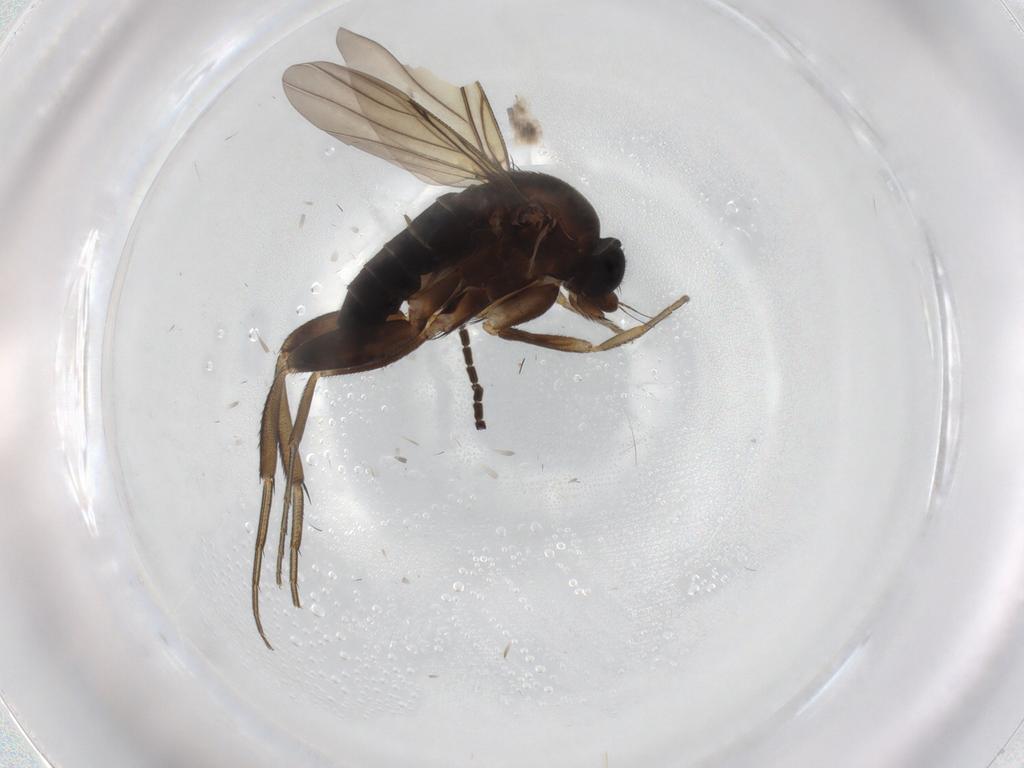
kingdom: Animalia
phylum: Arthropoda
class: Insecta
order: Diptera
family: Phoridae
